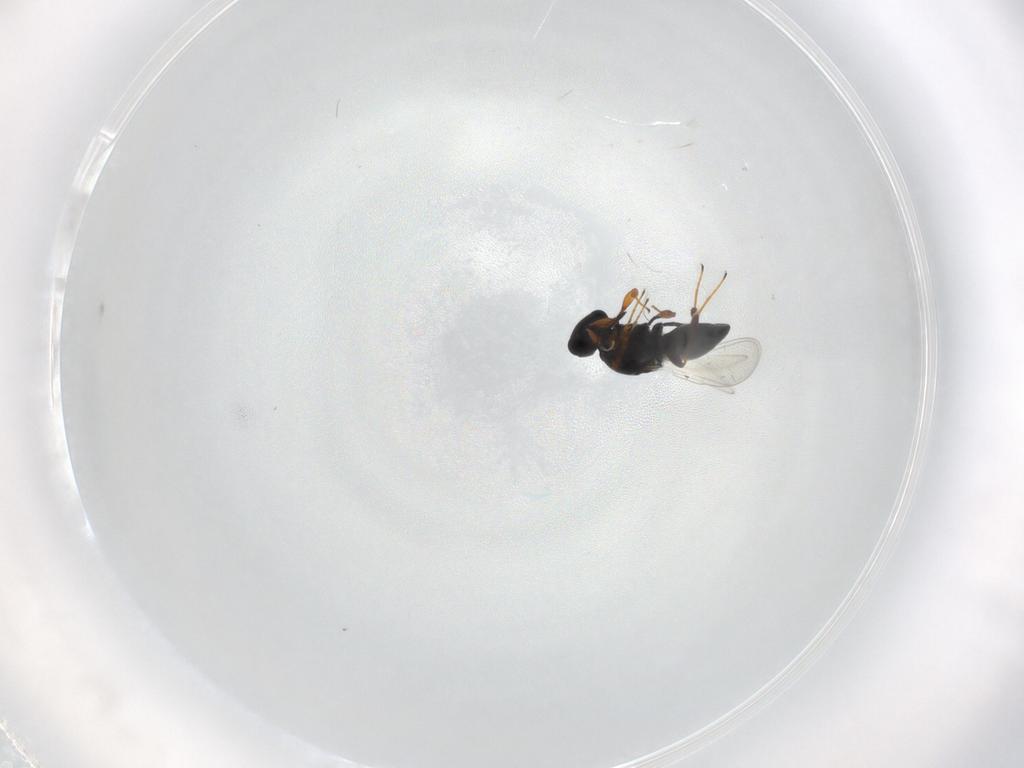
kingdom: Animalia
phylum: Arthropoda
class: Insecta
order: Hymenoptera
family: Platygastridae
